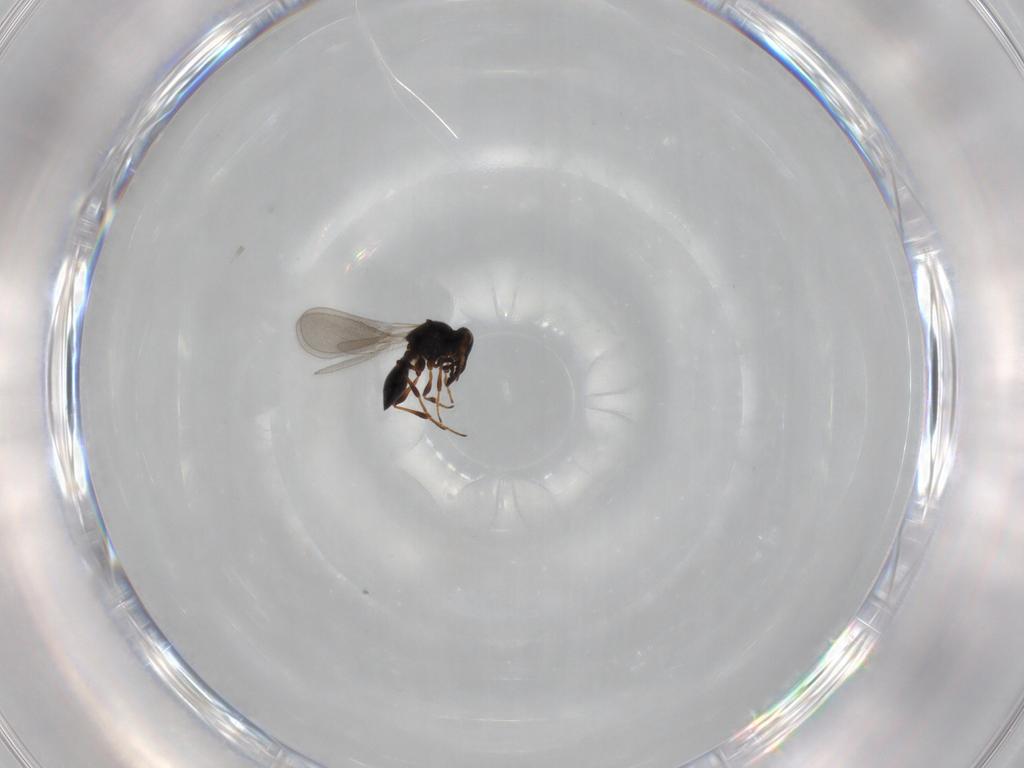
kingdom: Animalia
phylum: Arthropoda
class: Insecta
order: Hymenoptera
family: Platygastridae
